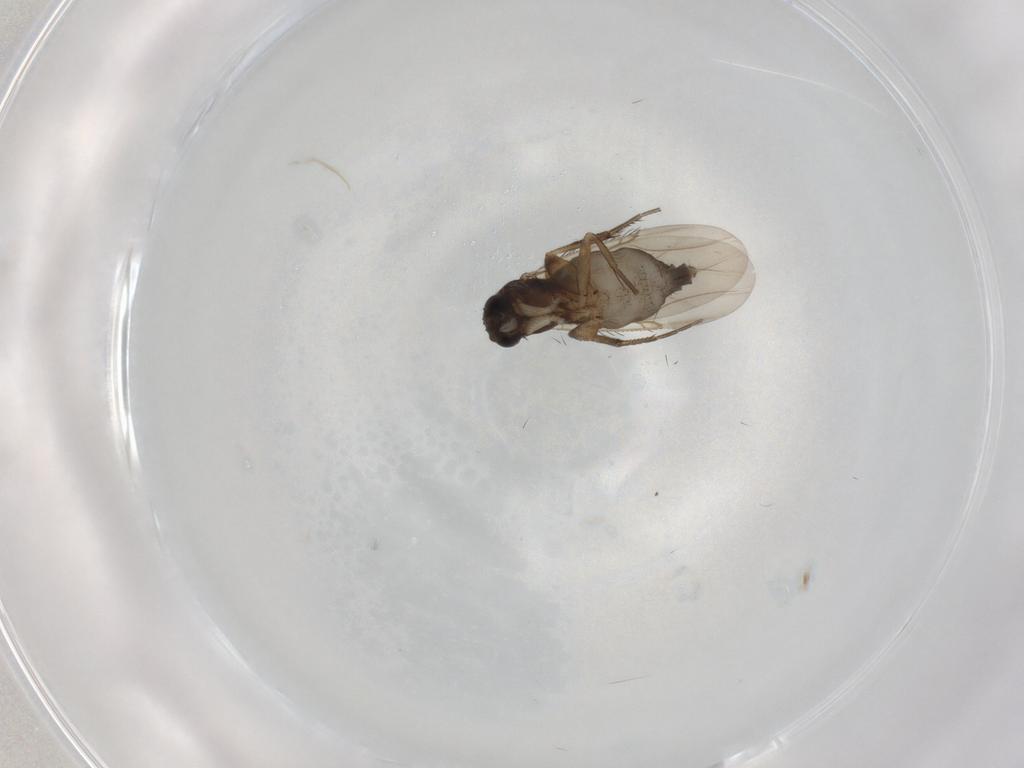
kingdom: Animalia
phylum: Arthropoda
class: Insecta
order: Diptera
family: Phoridae
